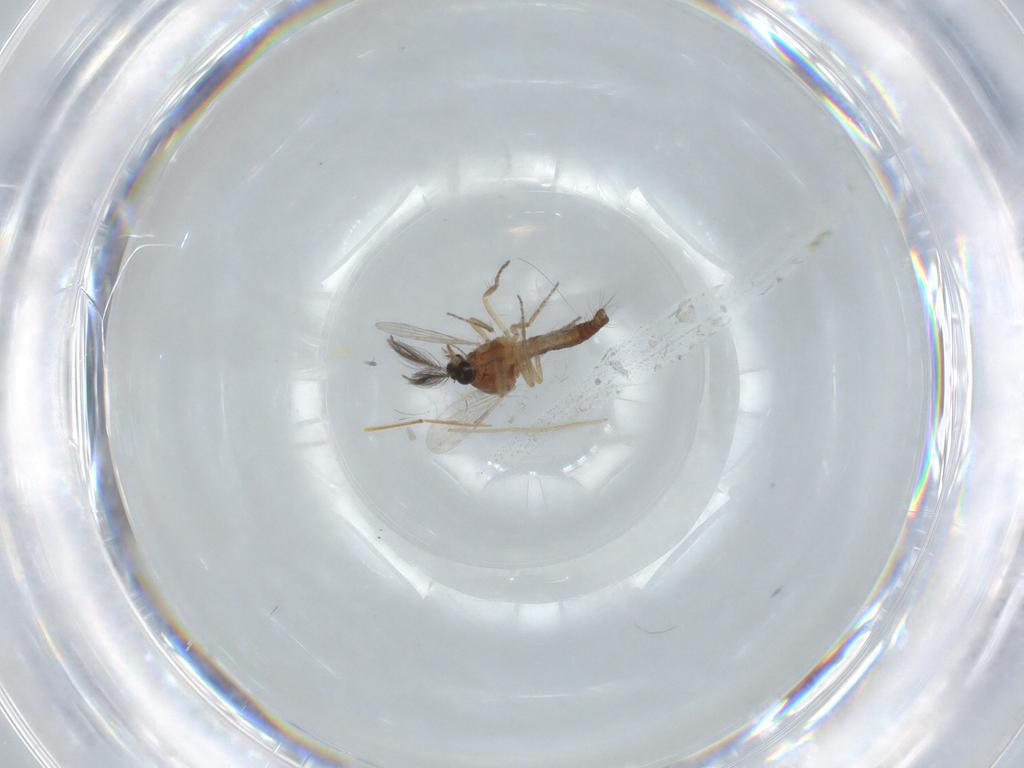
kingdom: Animalia
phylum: Arthropoda
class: Insecta
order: Diptera
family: Ceratopogonidae
